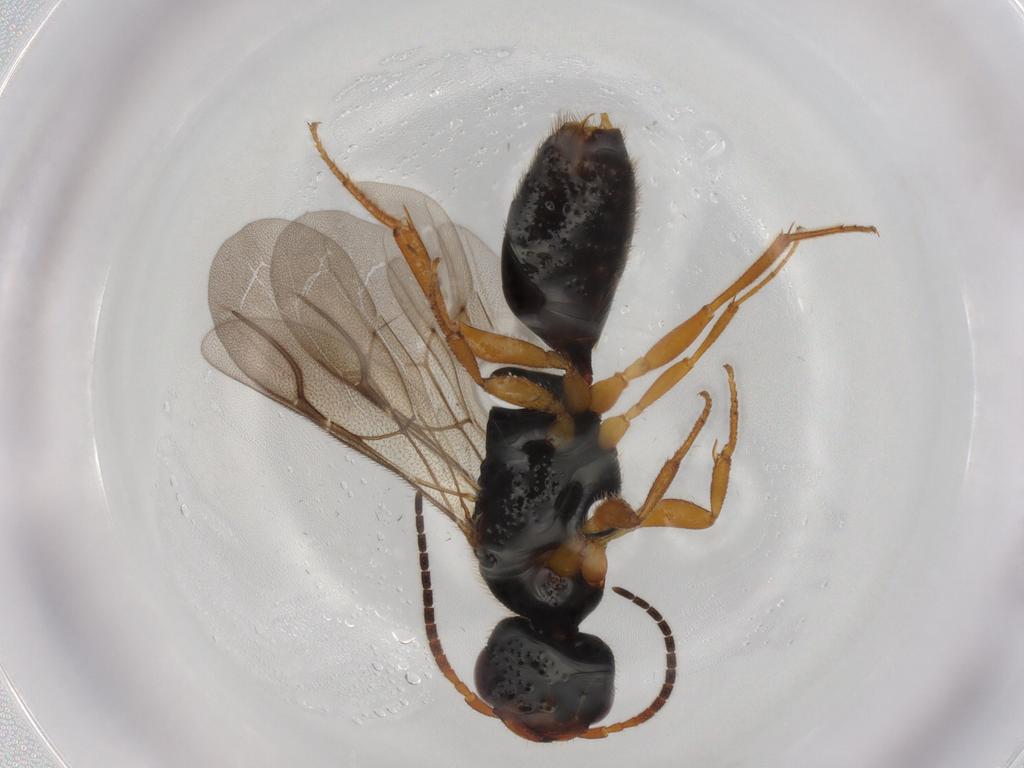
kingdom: Animalia
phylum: Arthropoda
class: Insecta
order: Hymenoptera
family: Bethylidae
